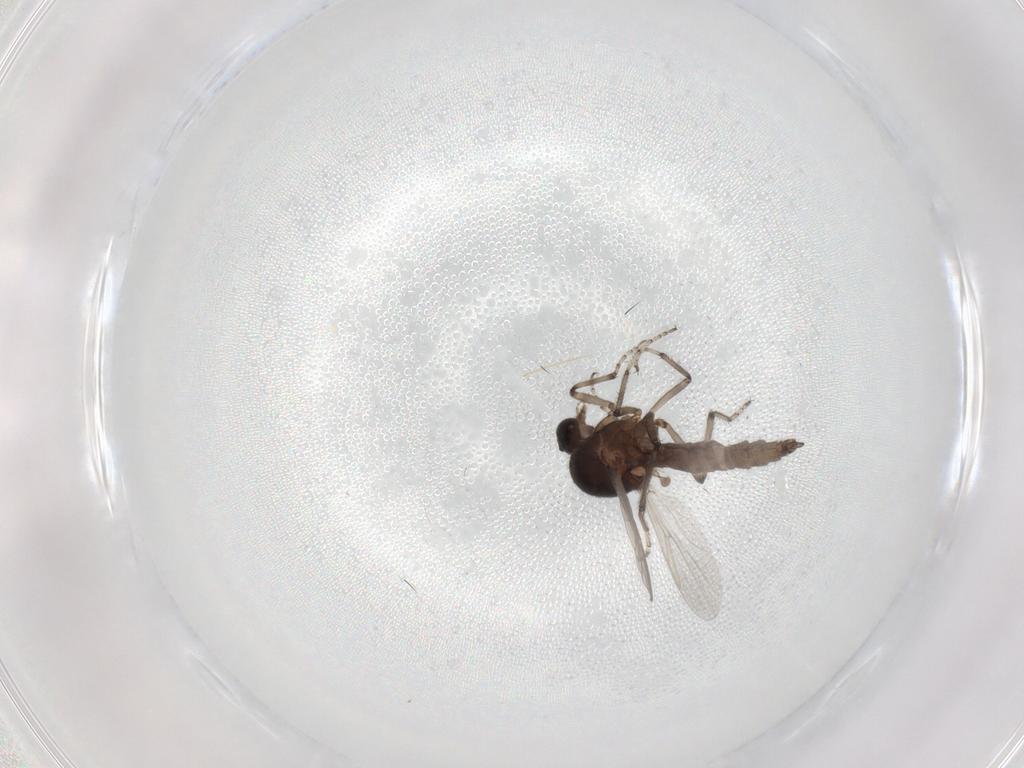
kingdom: Animalia
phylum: Arthropoda
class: Insecta
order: Diptera
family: Ceratopogonidae
